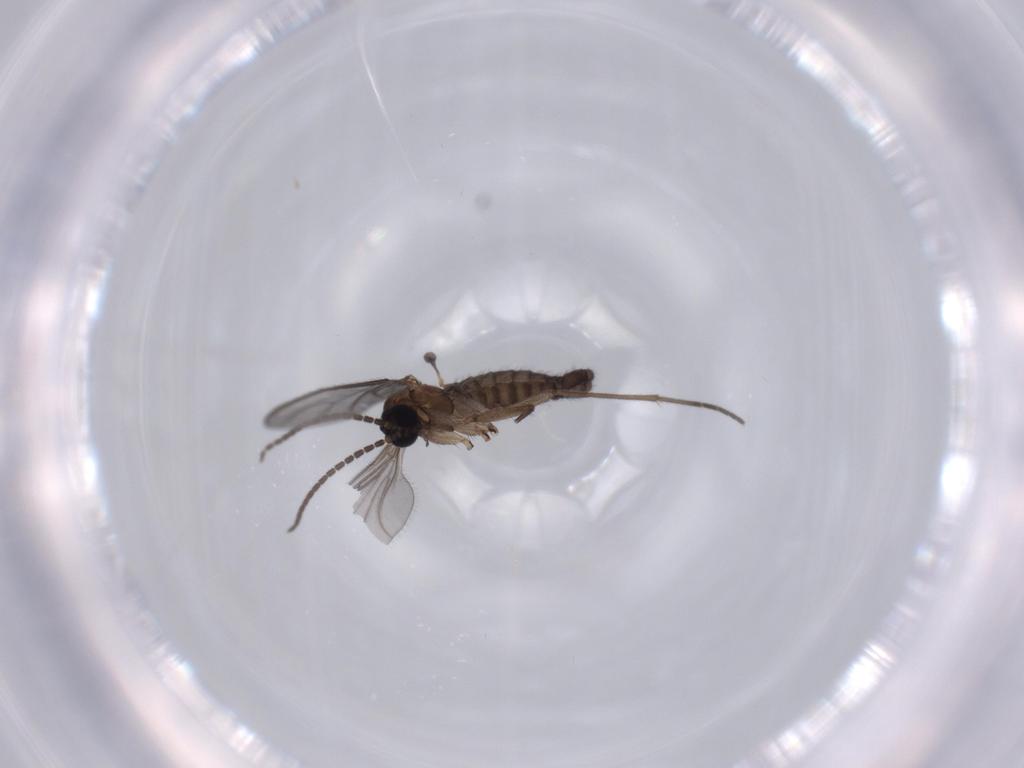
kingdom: Animalia
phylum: Arthropoda
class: Insecta
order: Diptera
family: Sciaridae
